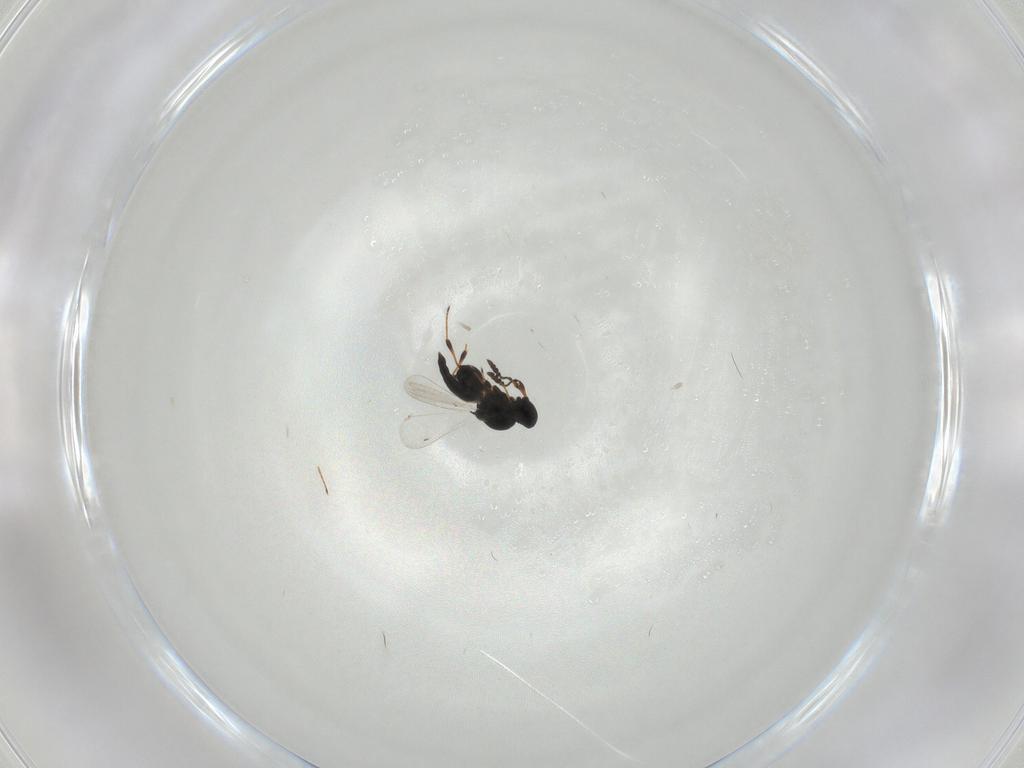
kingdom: Animalia
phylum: Arthropoda
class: Insecta
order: Hymenoptera
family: Platygastridae
